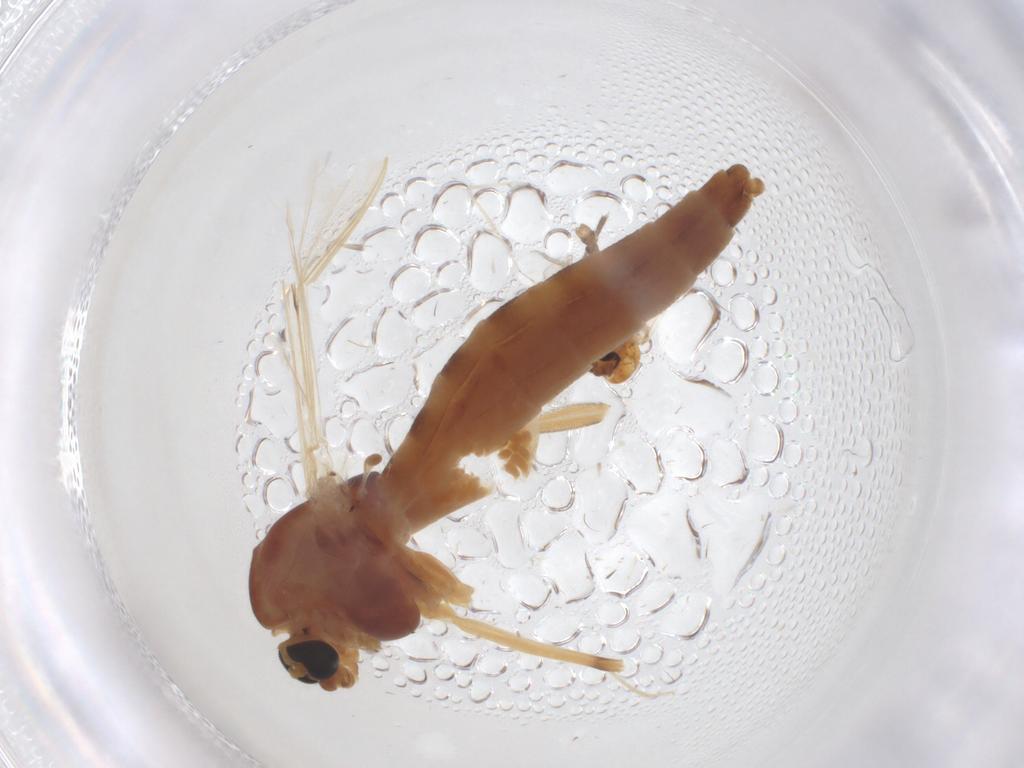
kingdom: Animalia
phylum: Arthropoda
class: Insecta
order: Diptera
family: Chironomidae
